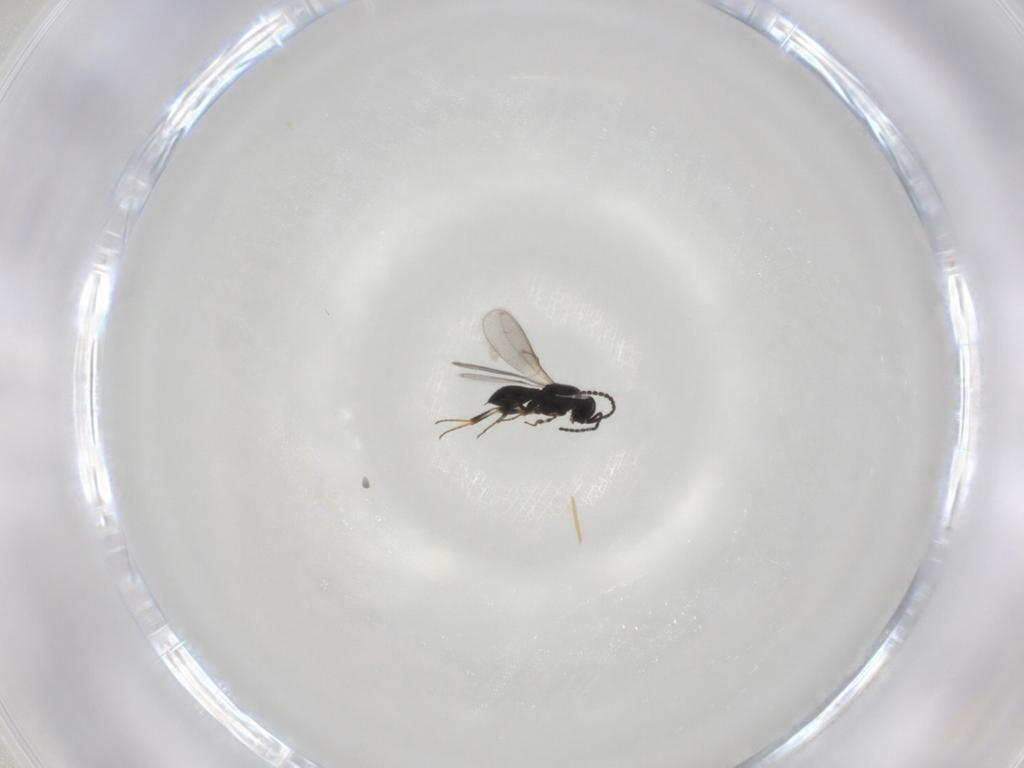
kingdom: Animalia
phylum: Arthropoda
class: Insecta
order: Hymenoptera
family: Scelionidae
